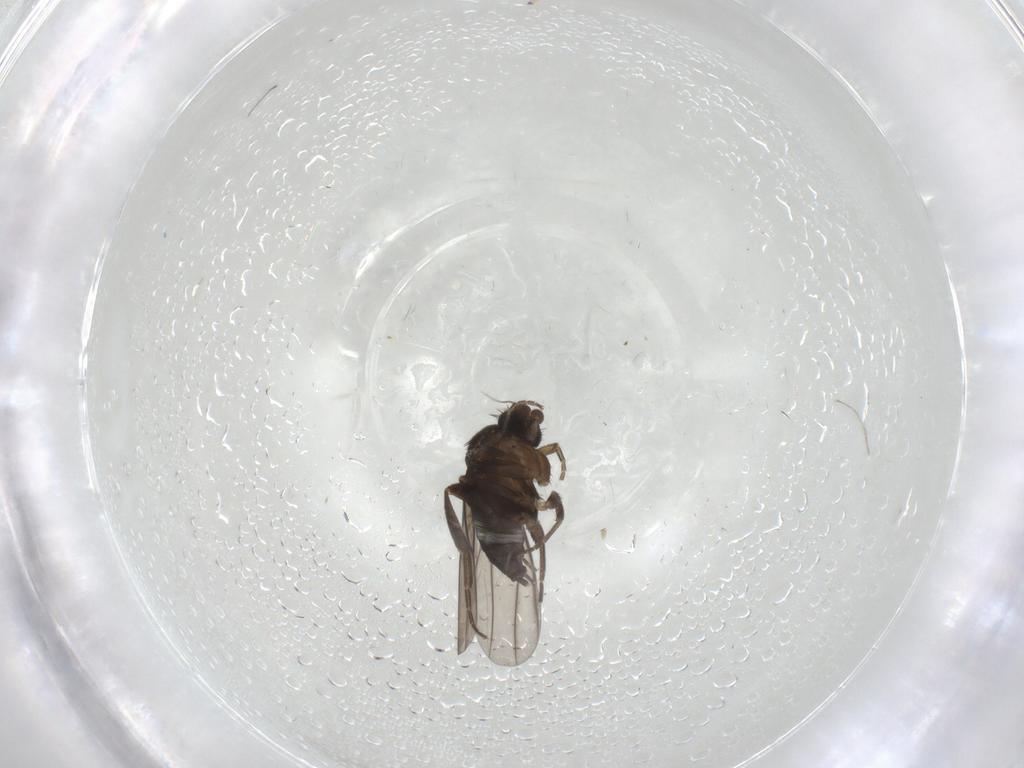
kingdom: Animalia
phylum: Arthropoda
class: Insecta
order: Diptera
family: Phoridae
